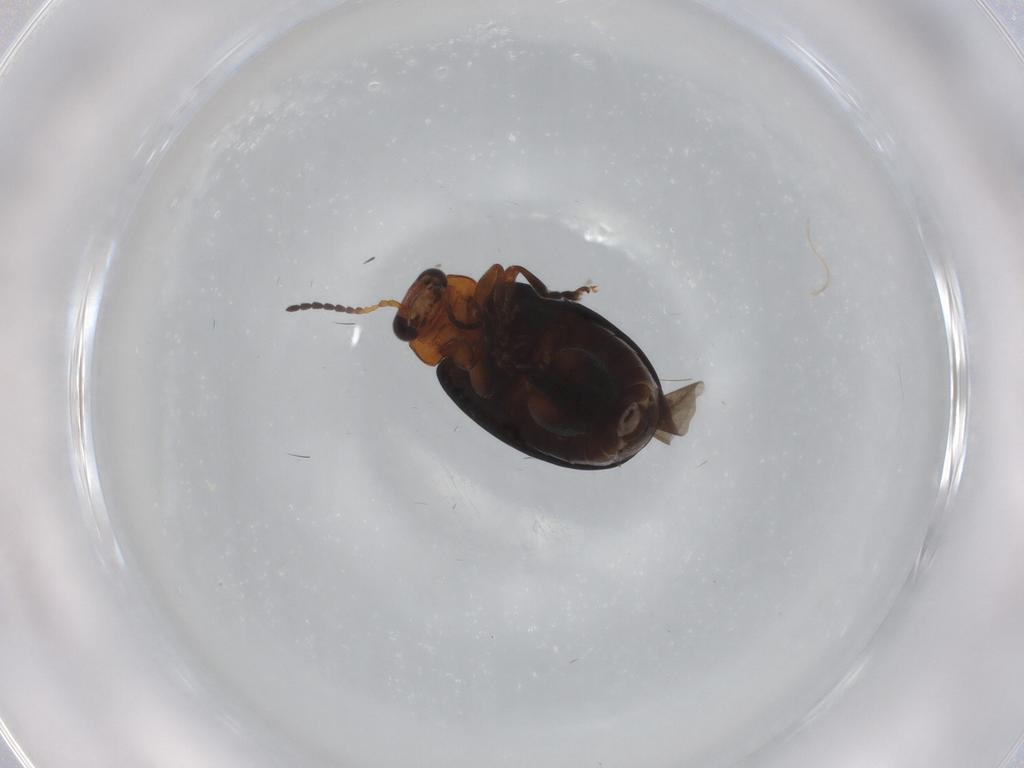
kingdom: Animalia
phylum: Arthropoda
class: Insecta
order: Coleoptera
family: Chrysomelidae
